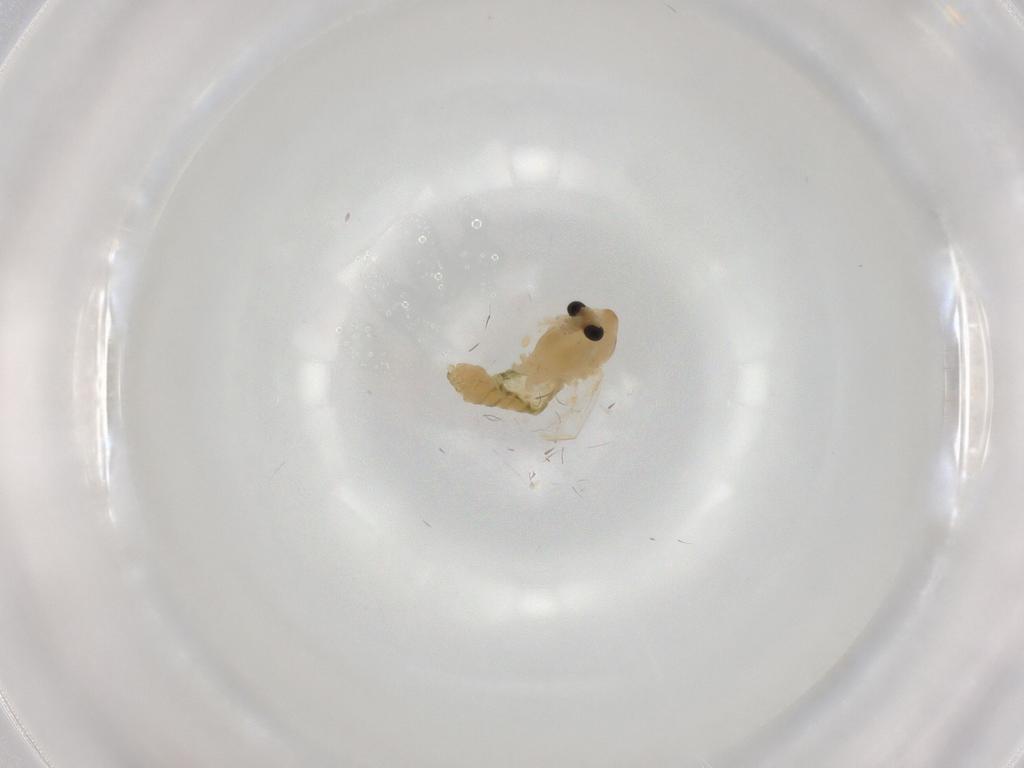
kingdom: Animalia
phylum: Arthropoda
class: Insecta
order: Diptera
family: Chironomidae
